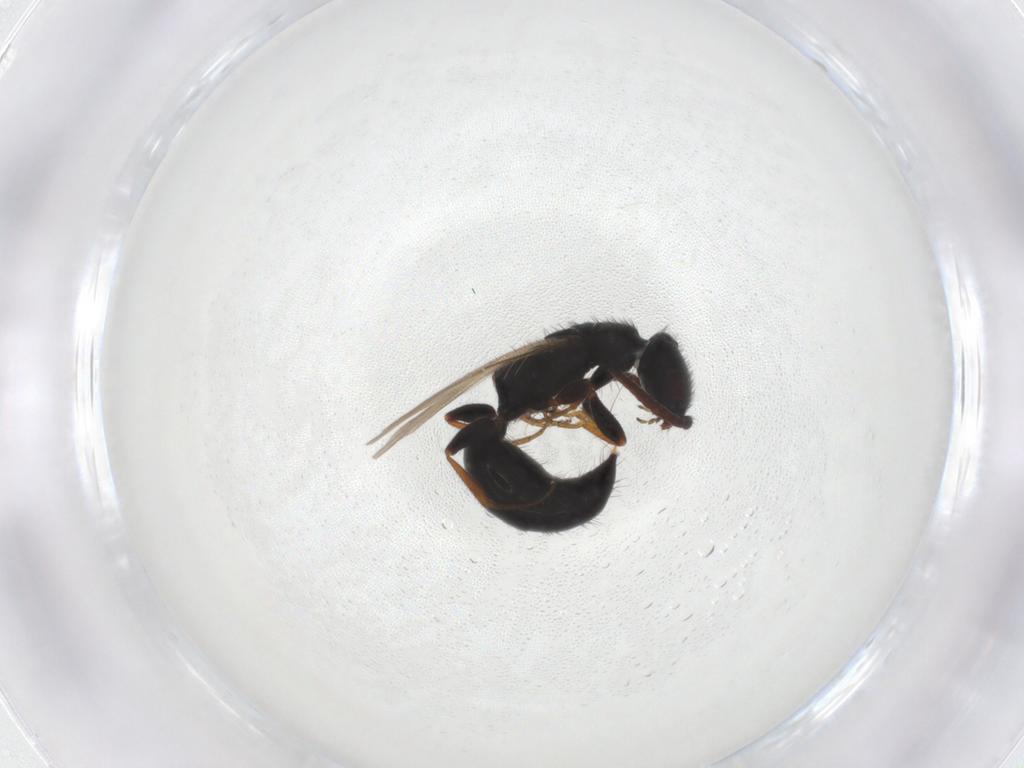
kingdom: Animalia
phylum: Arthropoda
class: Insecta
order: Hymenoptera
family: Bethylidae
